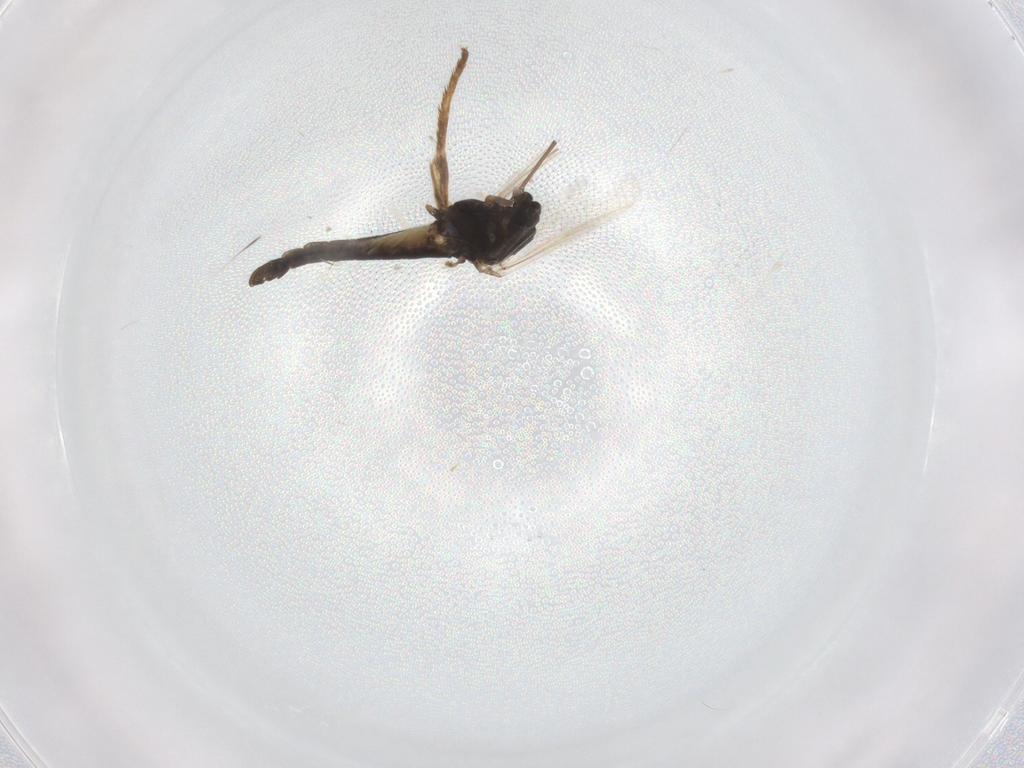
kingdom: Animalia
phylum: Arthropoda
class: Insecta
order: Diptera
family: Chironomidae
